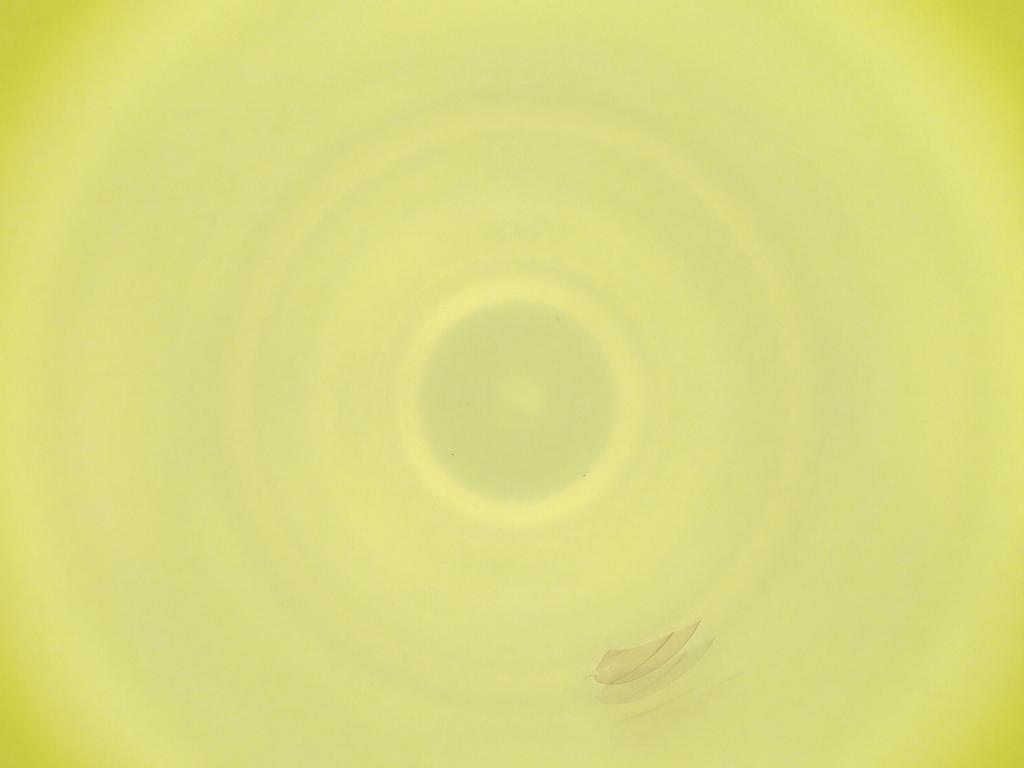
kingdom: Animalia
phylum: Arthropoda
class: Insecta
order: Diptera
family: Cecidomyiidae
